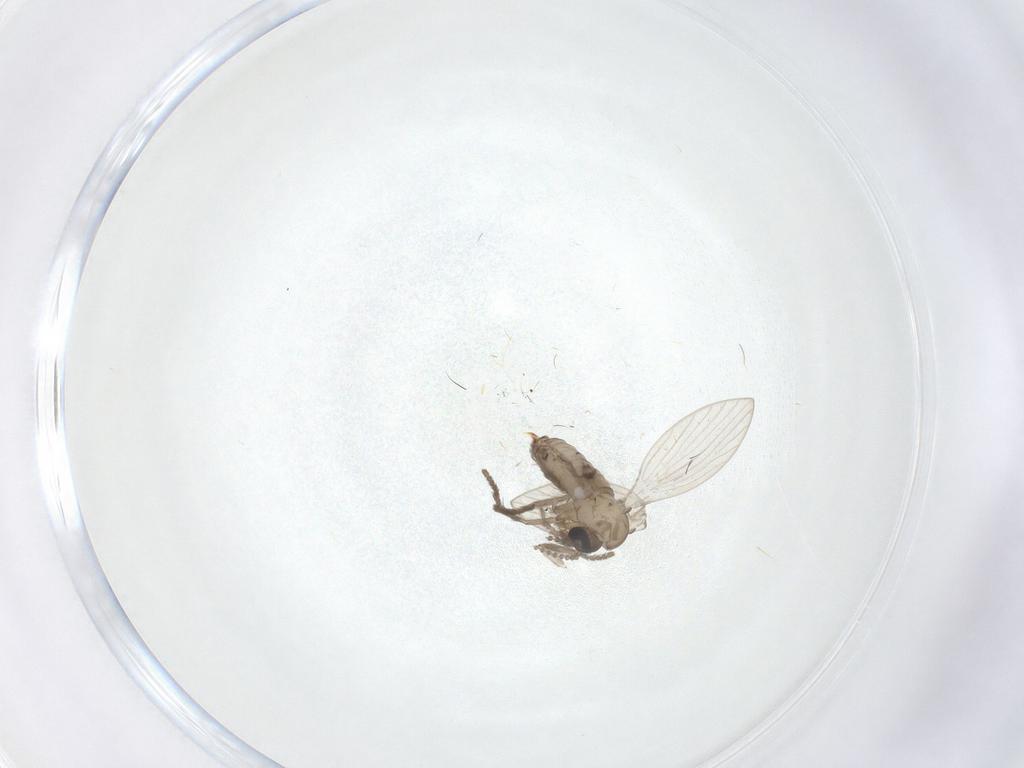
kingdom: Animalia
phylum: Arthropoda
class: Insecta
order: Diptera
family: Psychodidae
